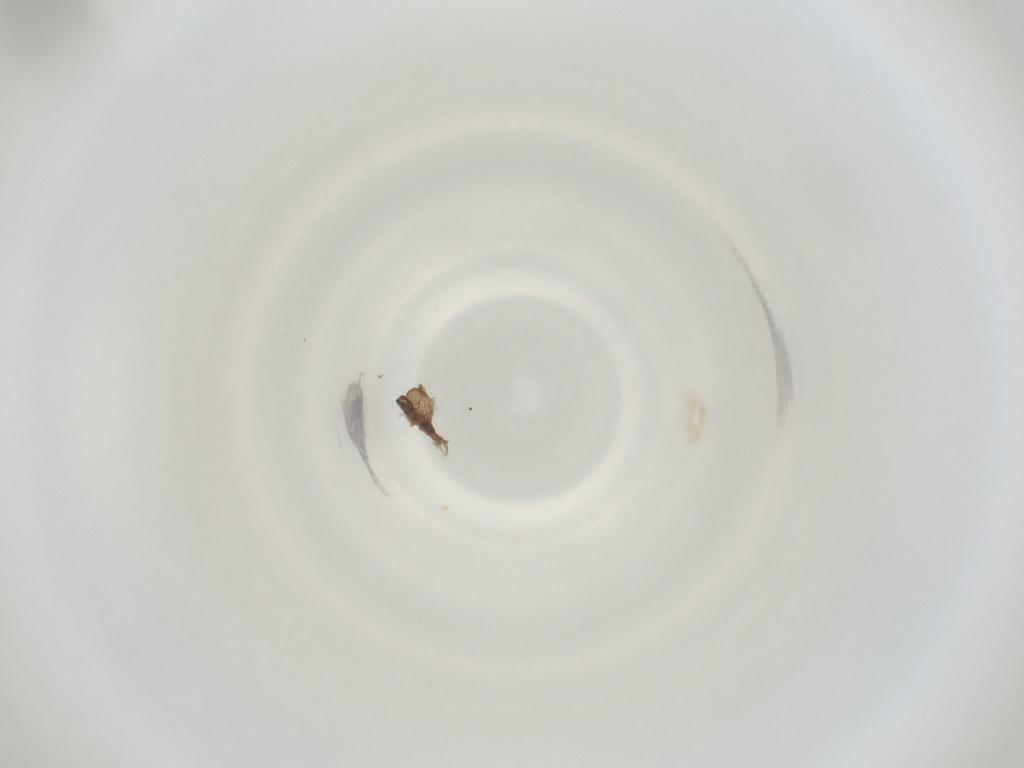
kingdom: Animalia
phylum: Arthropoda
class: Insecta
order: Diptera
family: Cecidomyiidae
